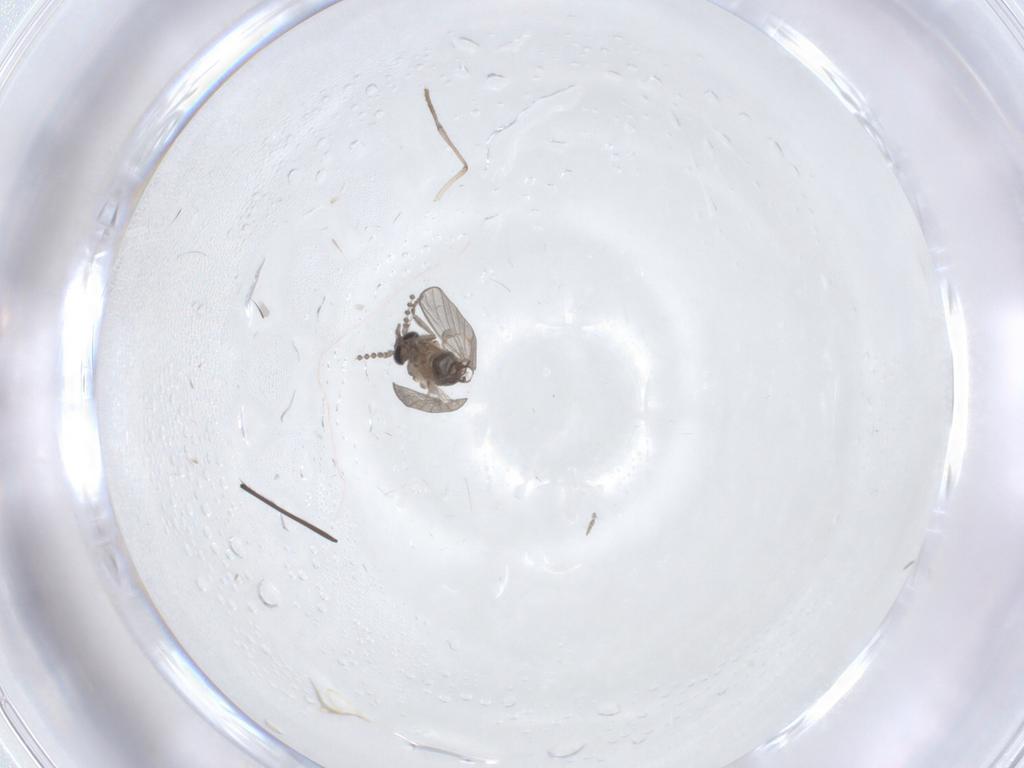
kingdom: Animalia
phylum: Arthropoda
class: Insecta
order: Diptera
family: Psychodidae
